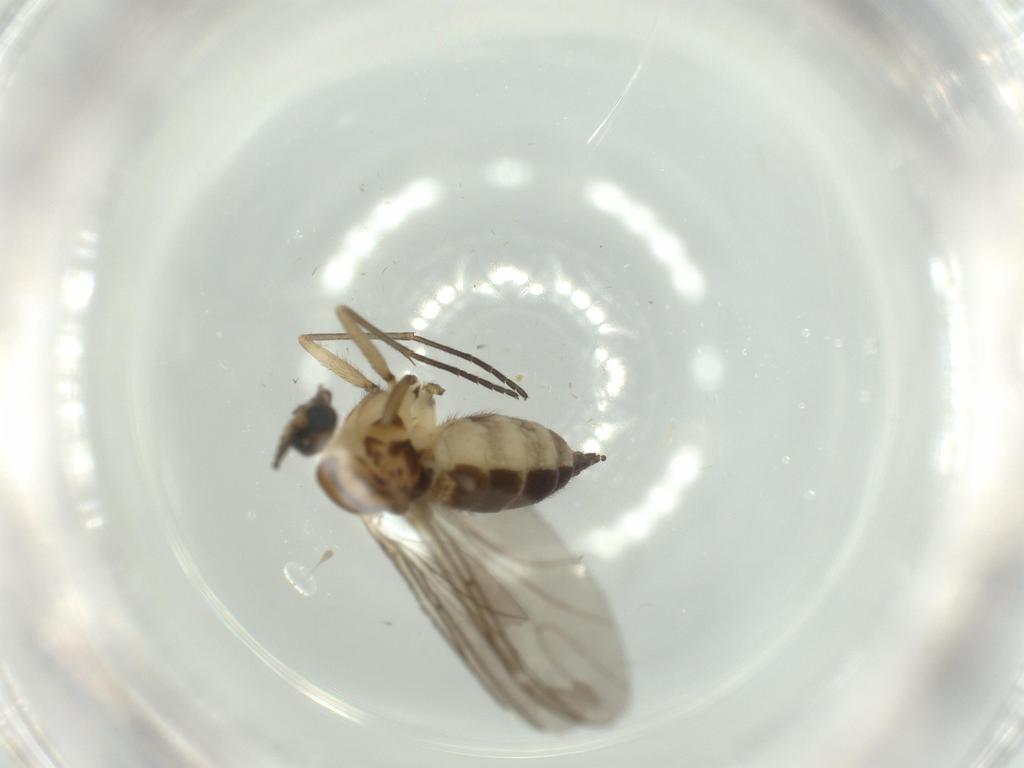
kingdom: Animalia
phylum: Arthropoda
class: Insecta
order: Diptera
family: Sciaridae
